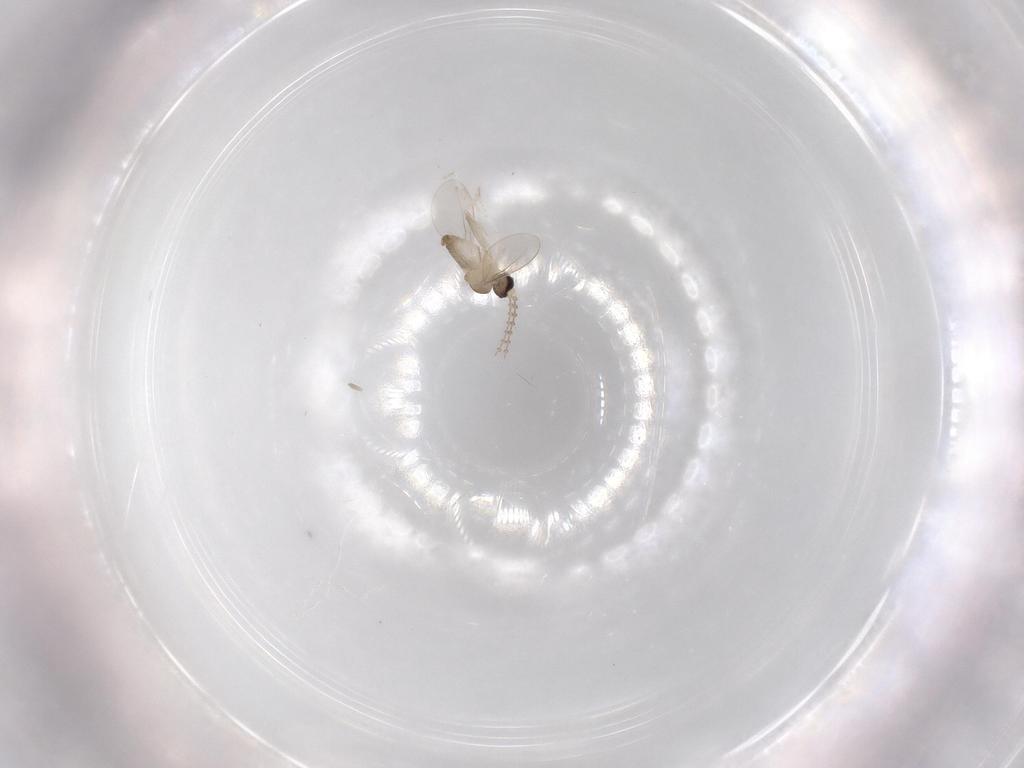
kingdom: Animalia
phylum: Arthropoda
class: Insecta
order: Diptera
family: Cecidomyiidae
